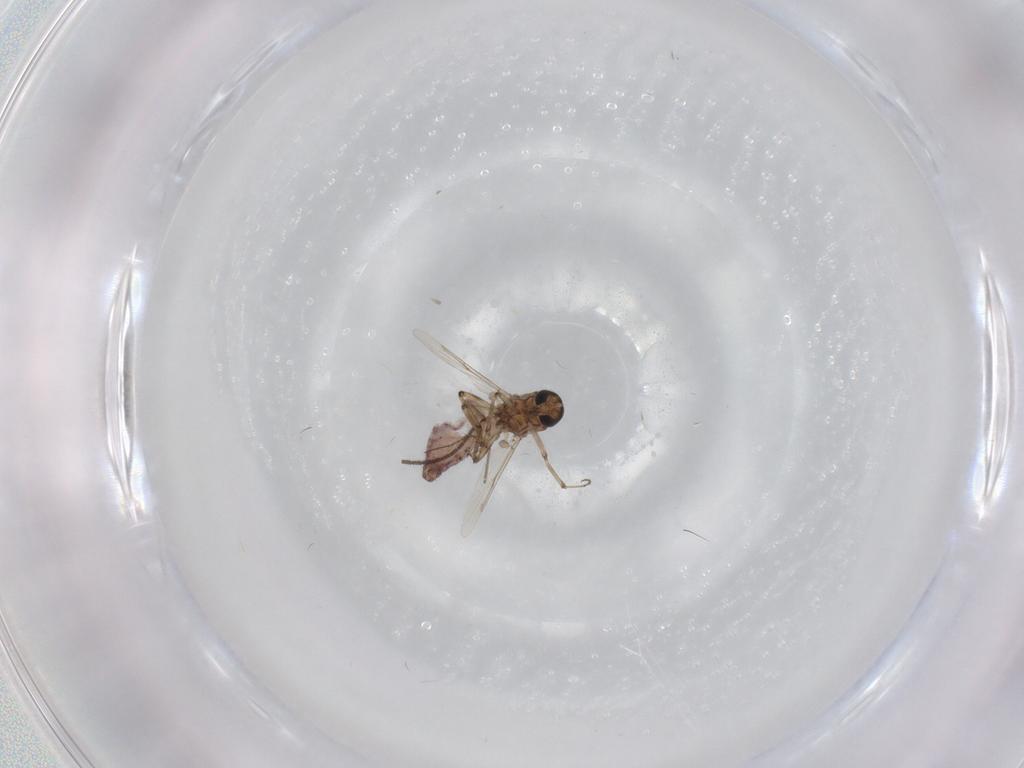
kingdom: Animalia
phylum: Arthropoda
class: Insecta
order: Diptera
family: Ceratopogonidae
